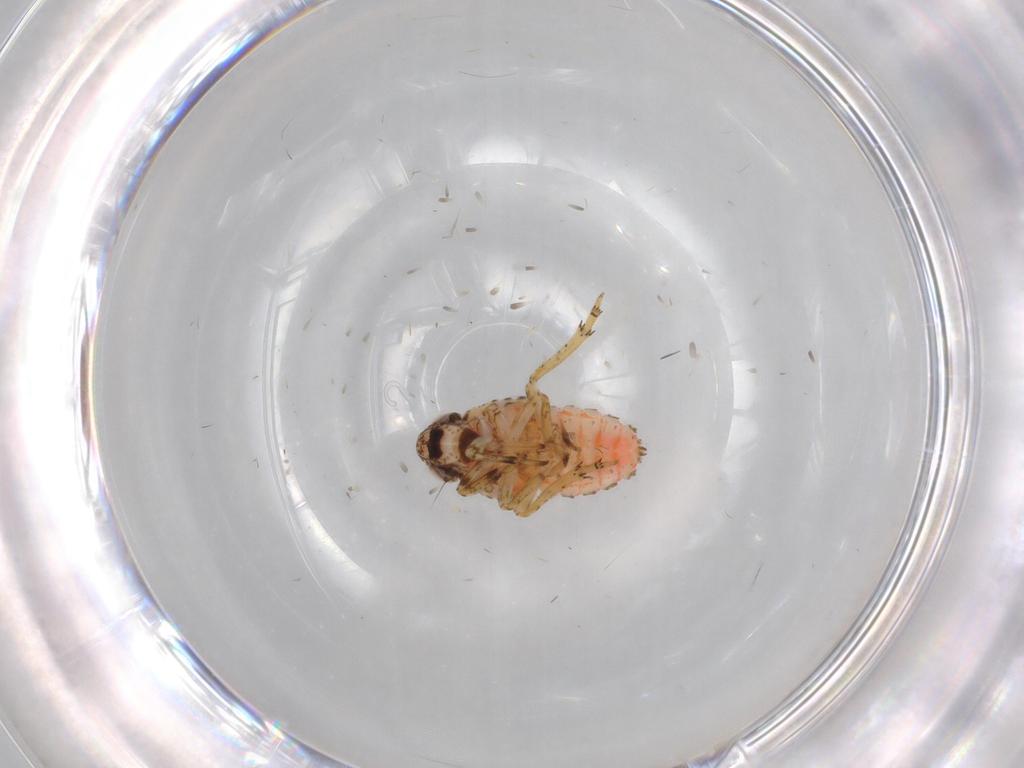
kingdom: Animalia
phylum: Arthropoda
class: Insecta
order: Hemiptera
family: Issidae
